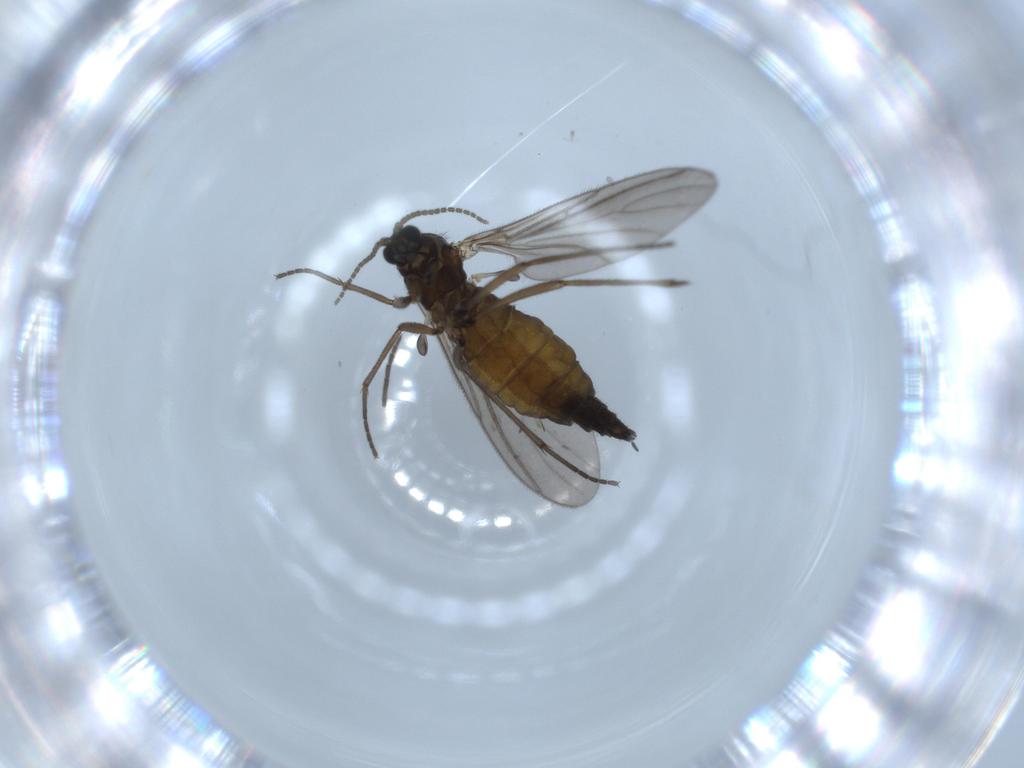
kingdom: Animalia
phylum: Arthropoda
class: Insecta
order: Diptera
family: Sciaridae
